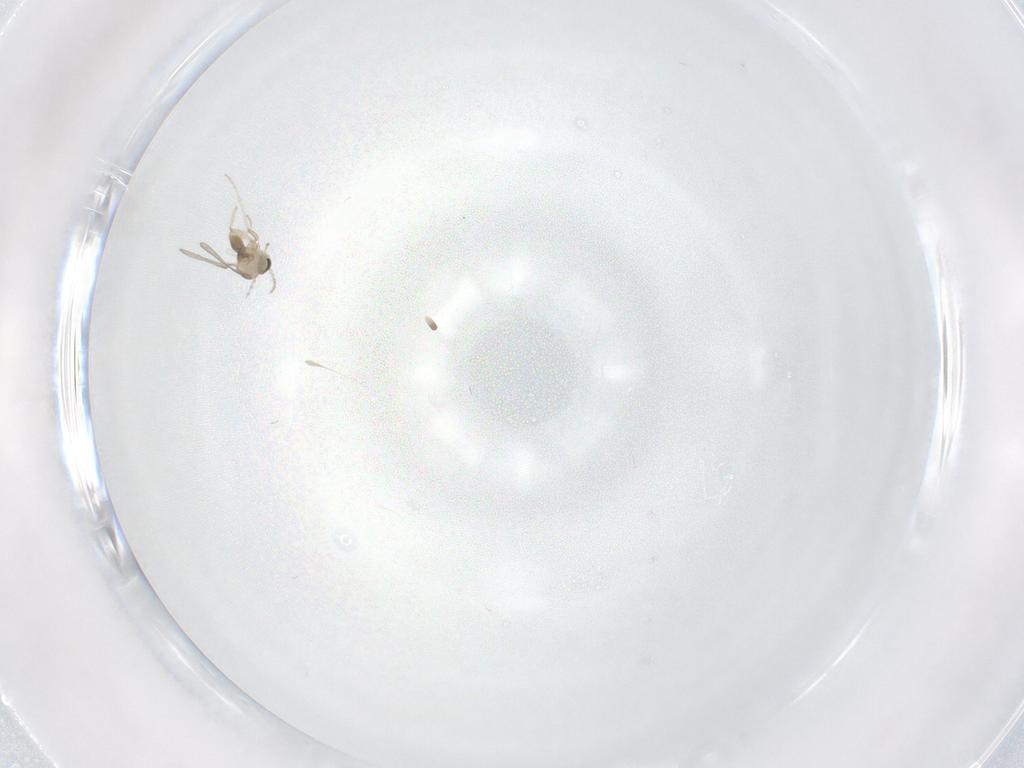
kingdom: Animalia
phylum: Arthropoda
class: Insecta
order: Diptera
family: Cecidomyiidae
